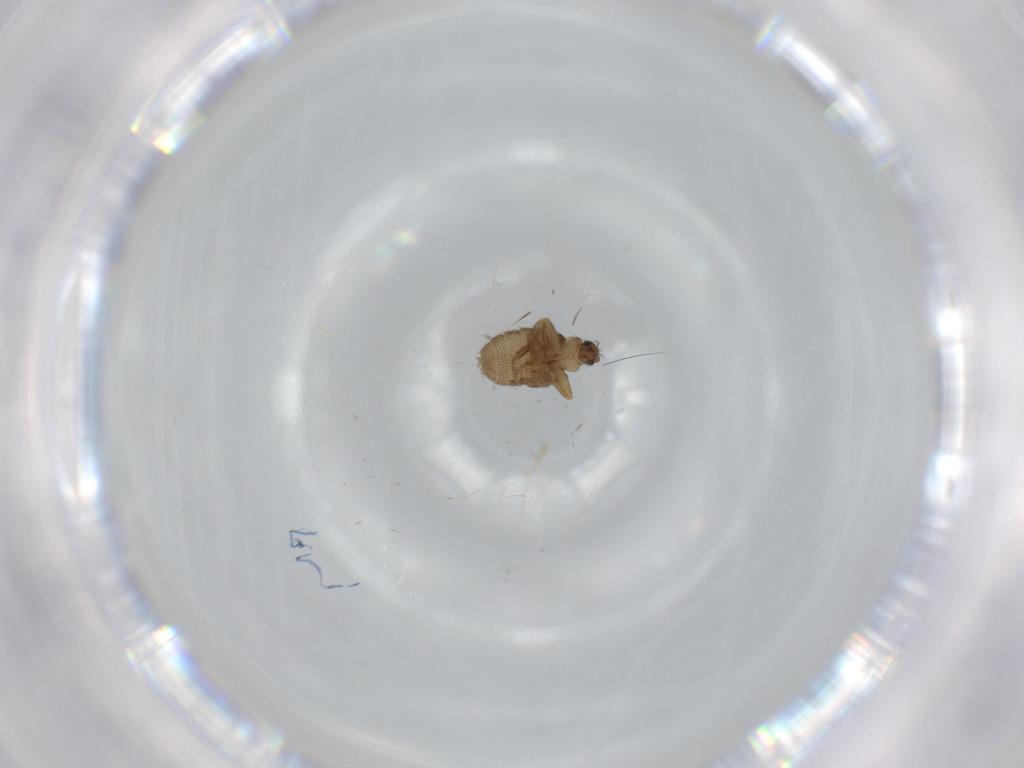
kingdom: Animalia
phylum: Arthropoda
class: Insecta
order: Diptera
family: Phoridae
